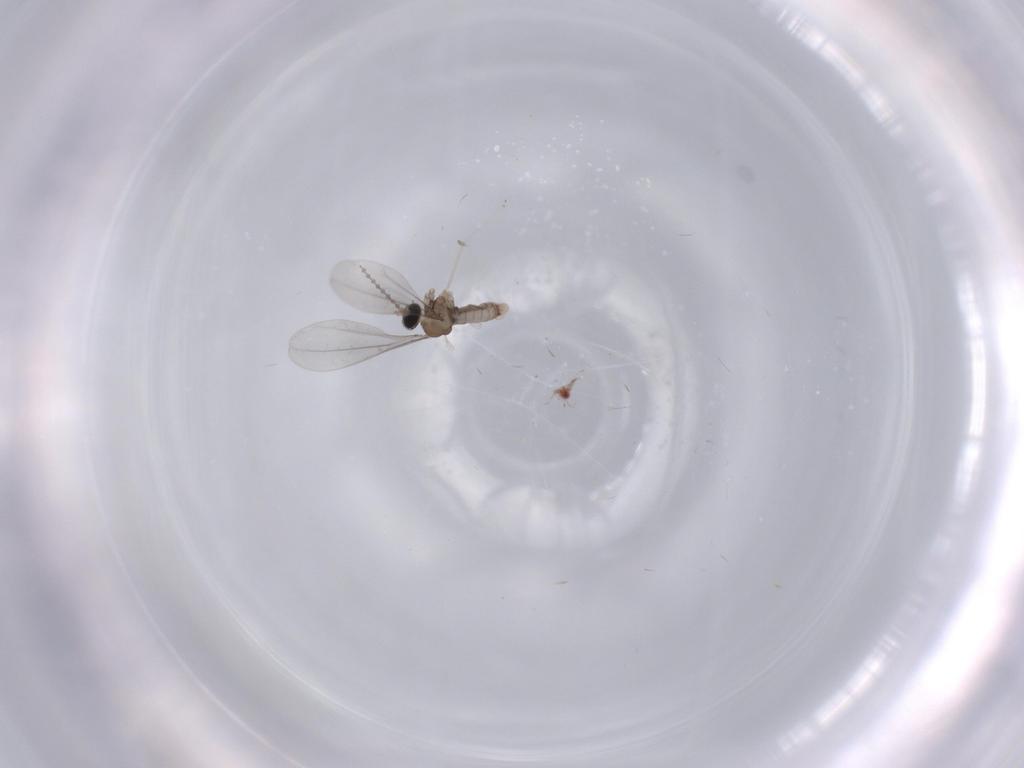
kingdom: Animalia
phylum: Arthropoda
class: Insecta
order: Diptera
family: Cecidomyiidae
